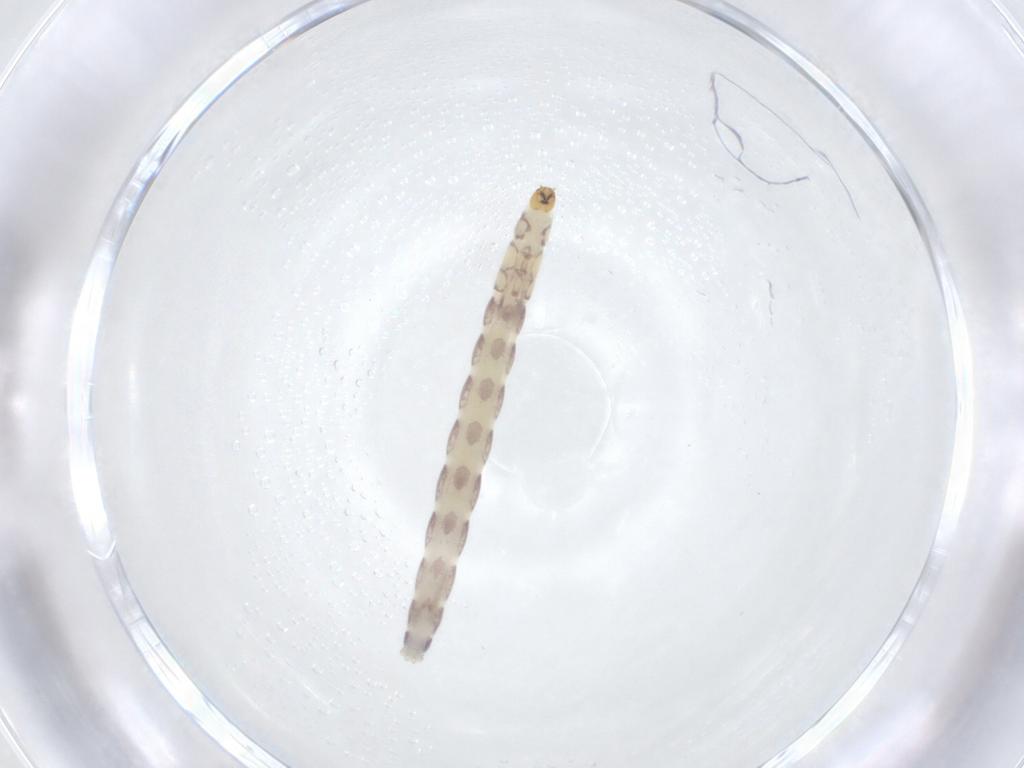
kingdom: Animalia
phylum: Arthropoda
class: Insecta
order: Diptera
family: Chironomidae
